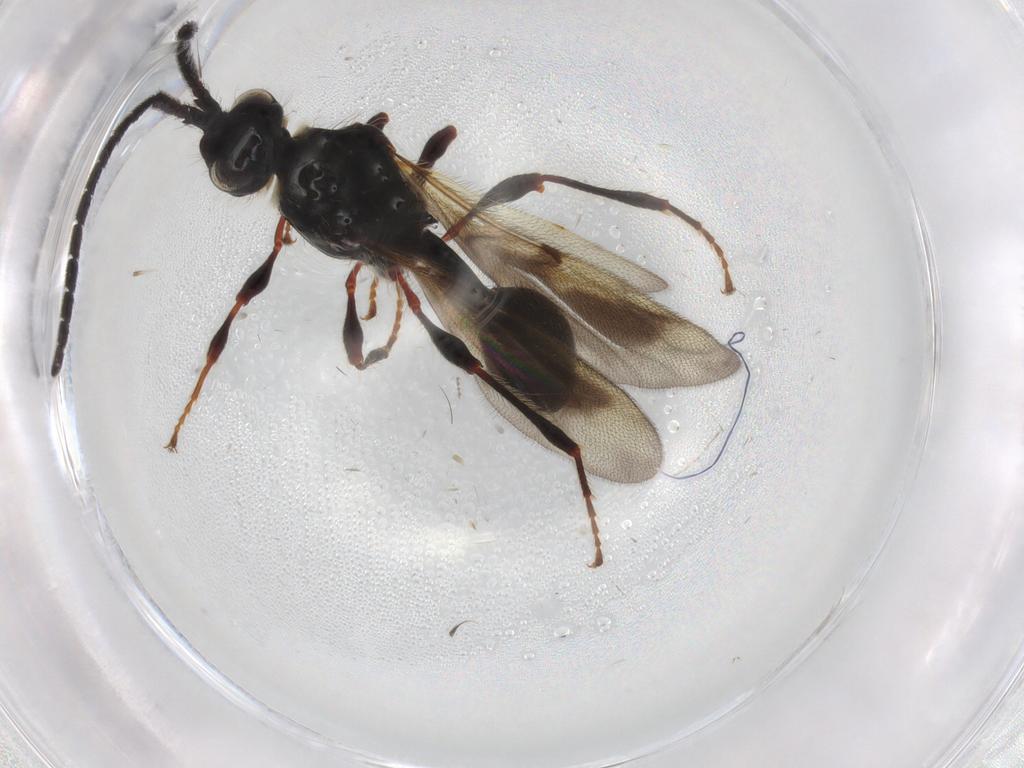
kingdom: Animalia
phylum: Arthropoda
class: Insecta
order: Hymenoptera
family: Diapriidae
